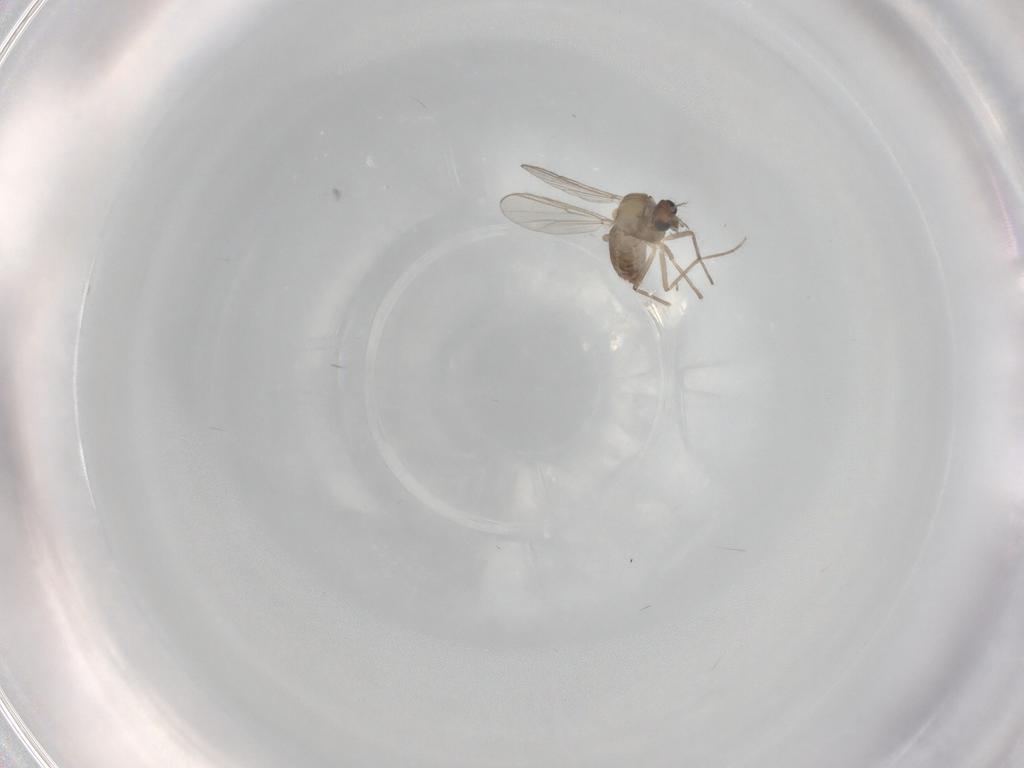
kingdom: Animalia
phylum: Arthropoda
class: Insecta
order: Diptera
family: Chironomidae
